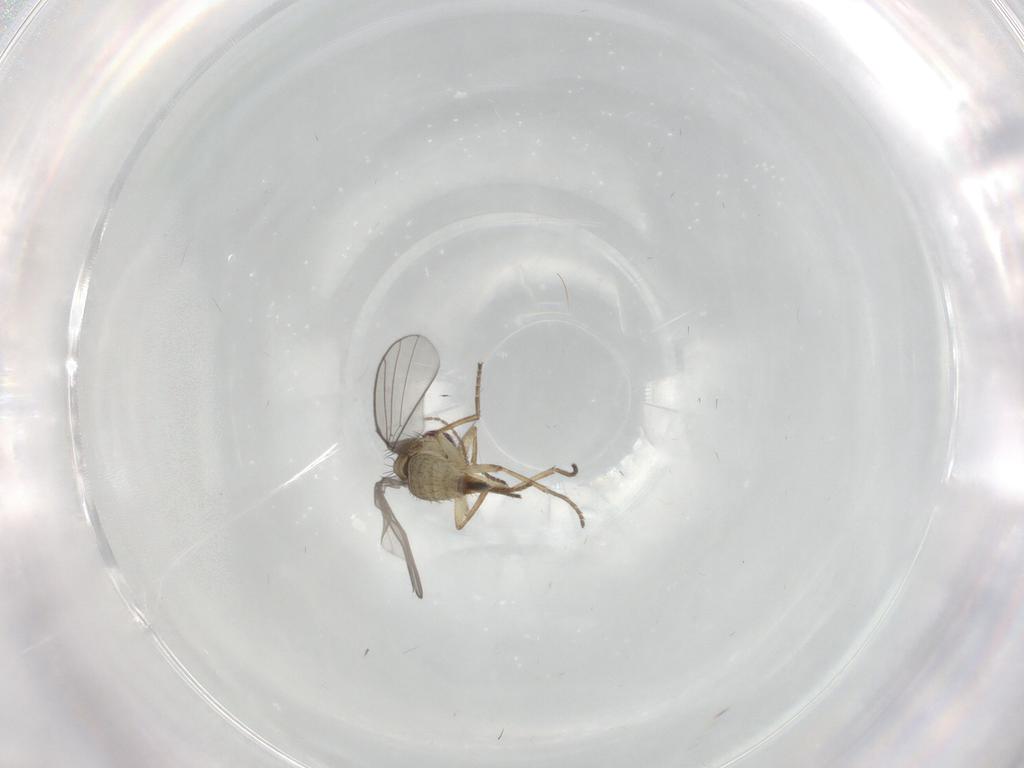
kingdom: Animalia
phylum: Arthropoda
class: Insecta
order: Diptera
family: Agromyzidae
